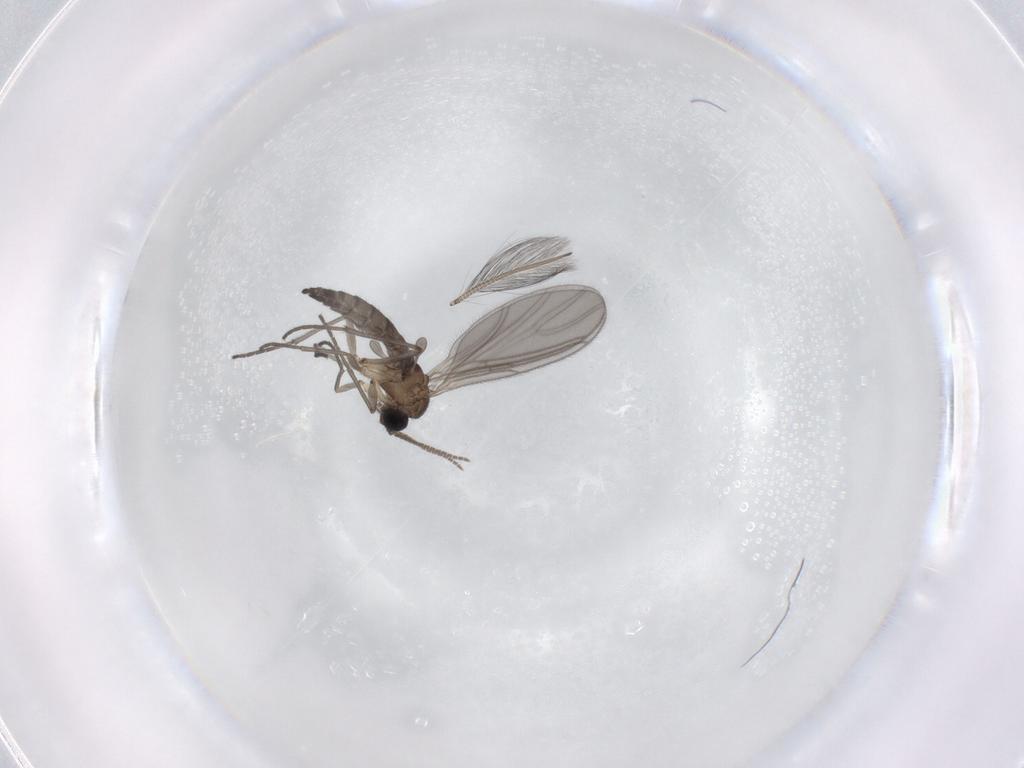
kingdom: Animalia
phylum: Arthropoda
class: Insecta
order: Diptera
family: Sciaridae
